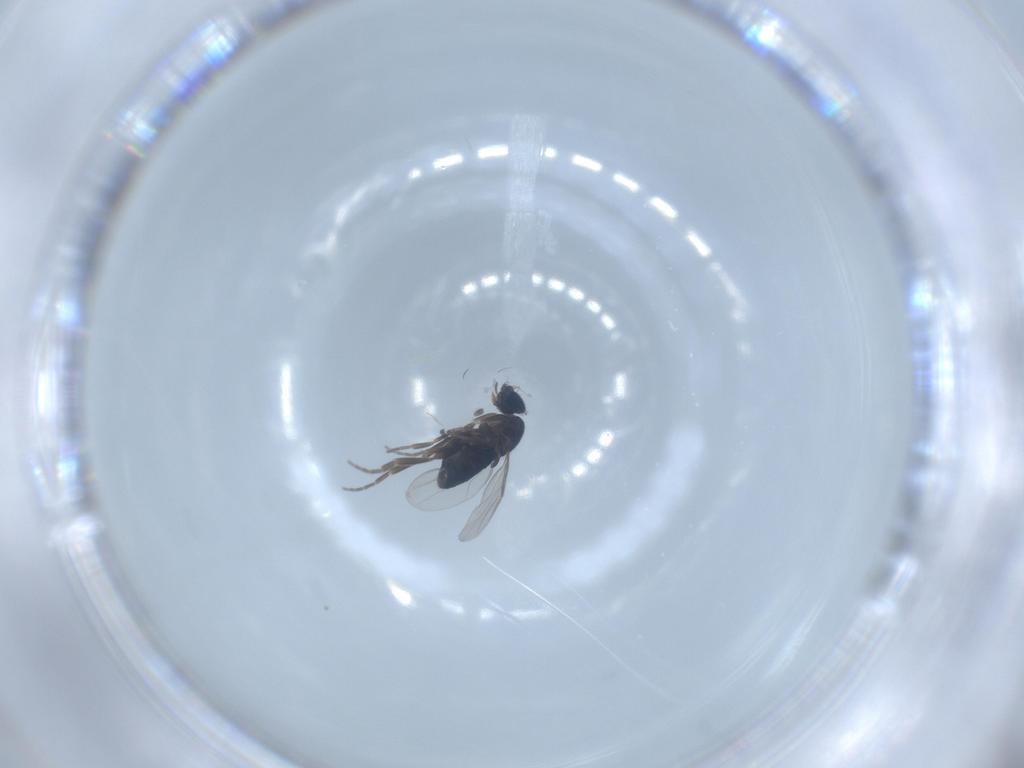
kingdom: Animalia
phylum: Arthropoda
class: Insecta
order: Diptera
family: Phoridae
